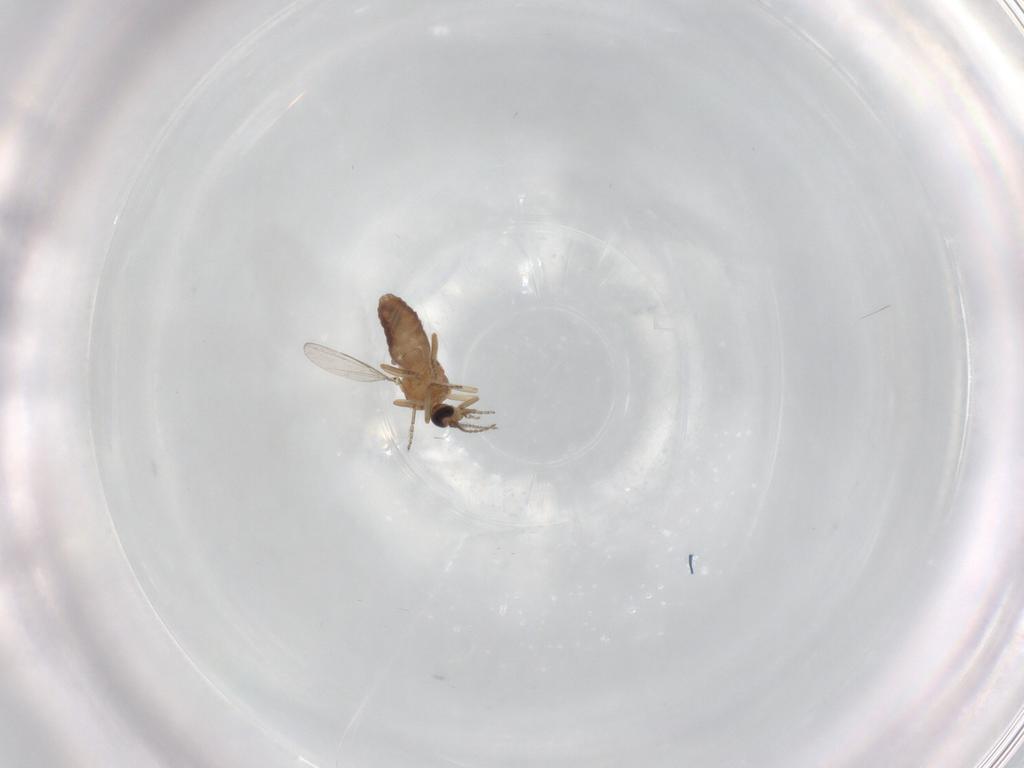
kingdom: Animalia
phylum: Arthropoda
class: Insecta
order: Diptera
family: Ceratopogonidae
